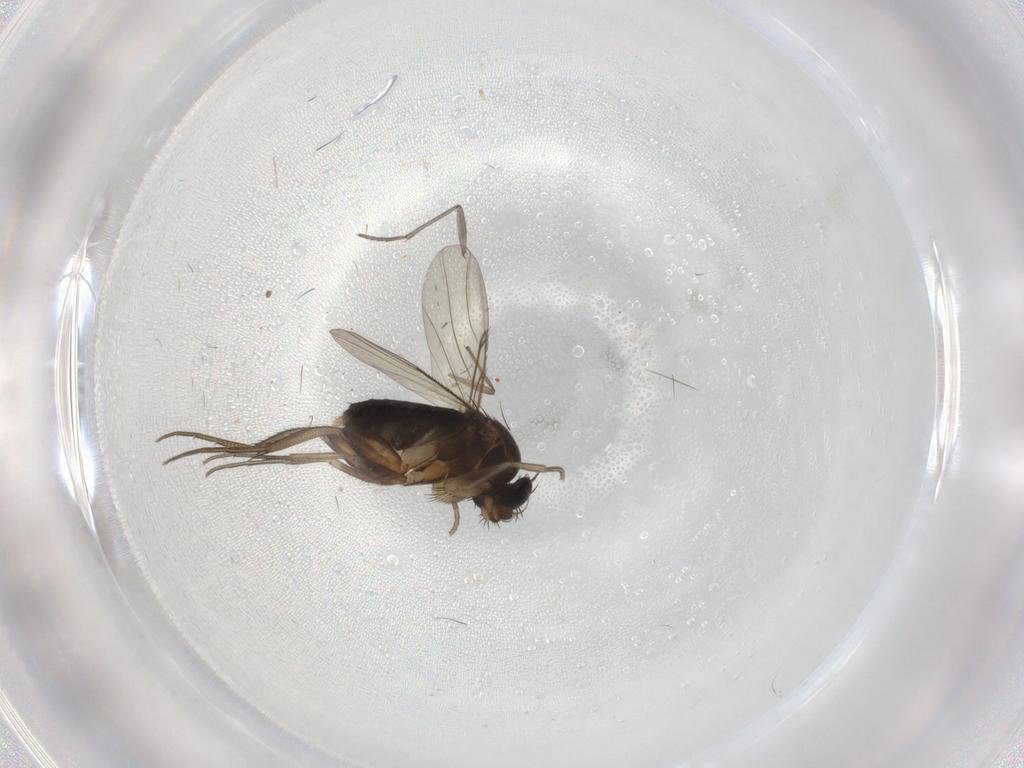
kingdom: Animalia
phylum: Arthropoda
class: Insecta
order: Diptera
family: Phoridae
